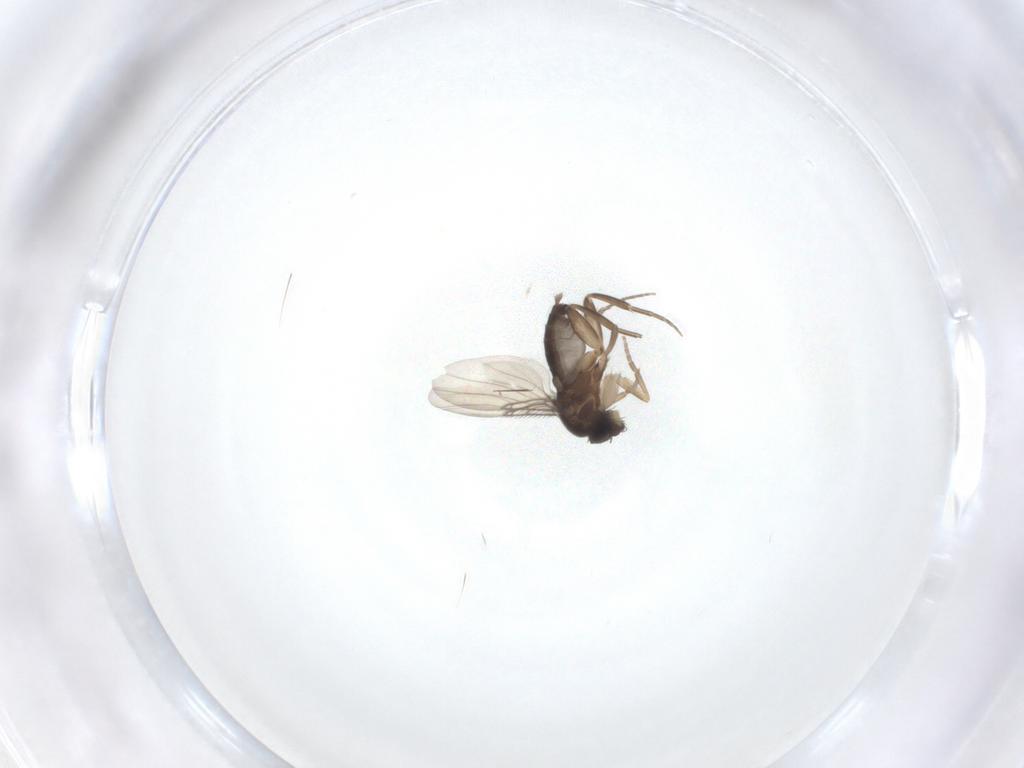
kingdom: Animalia
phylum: Arthropoda
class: Insecta
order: Diptera
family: Phoridae
